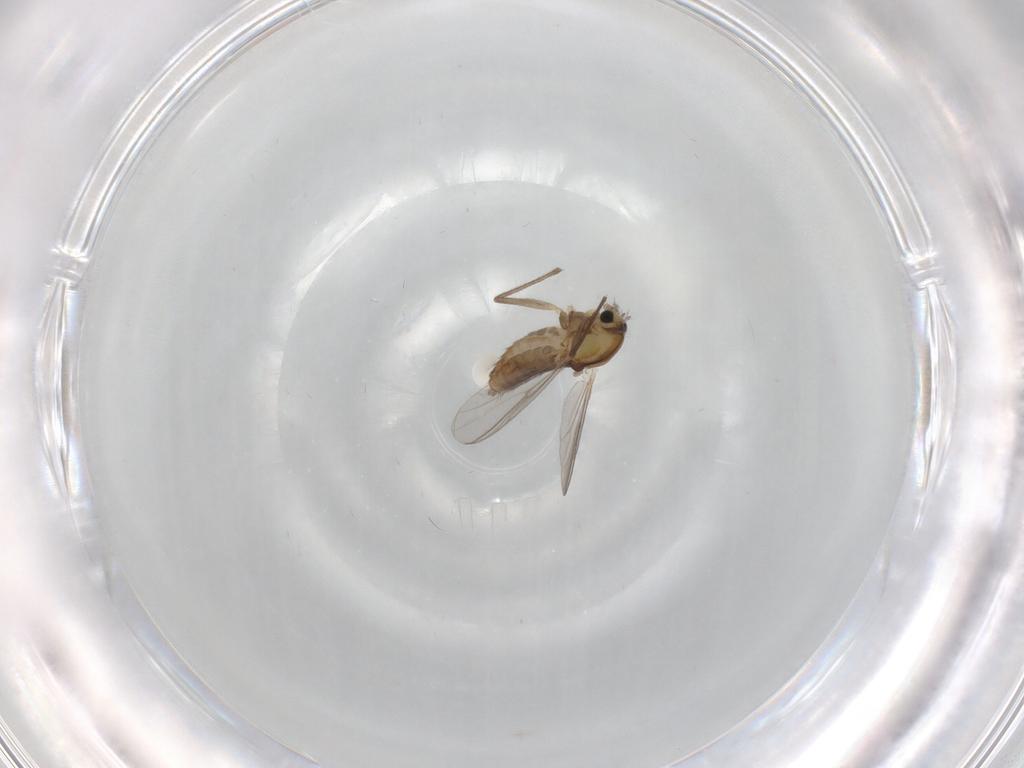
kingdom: Animalia
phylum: Arthropoda
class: Insecta
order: Diptera
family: Chironomidae
